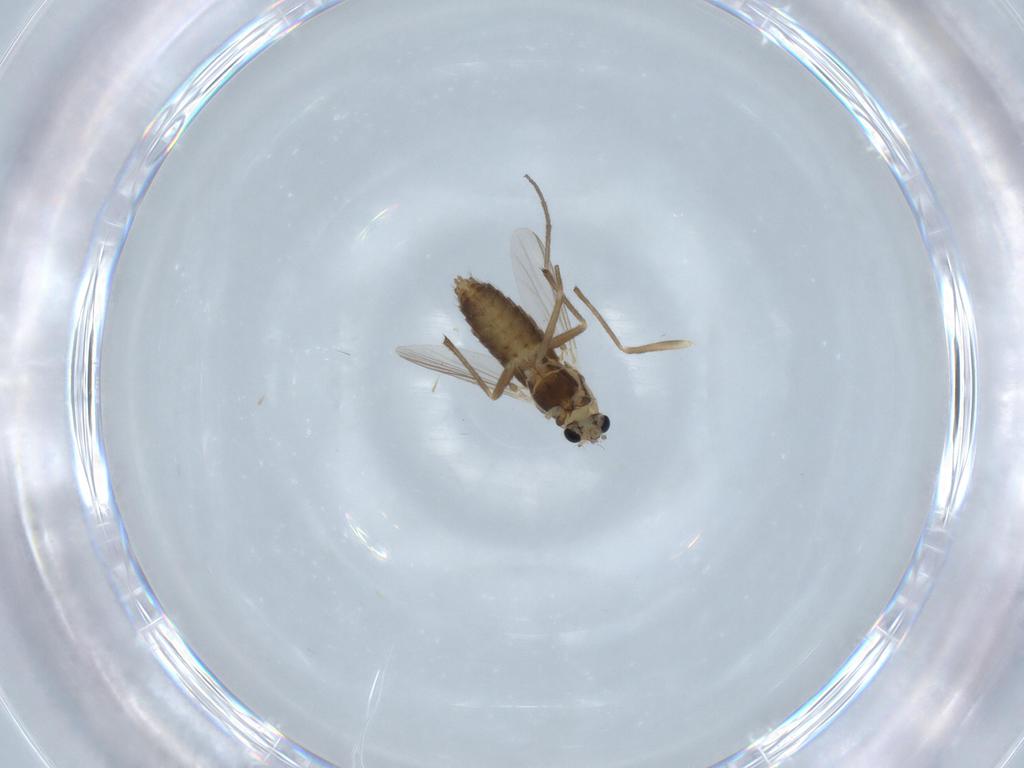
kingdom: Animalia
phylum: Arthropoda
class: Insecta
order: Diptera
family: Chironomidae
